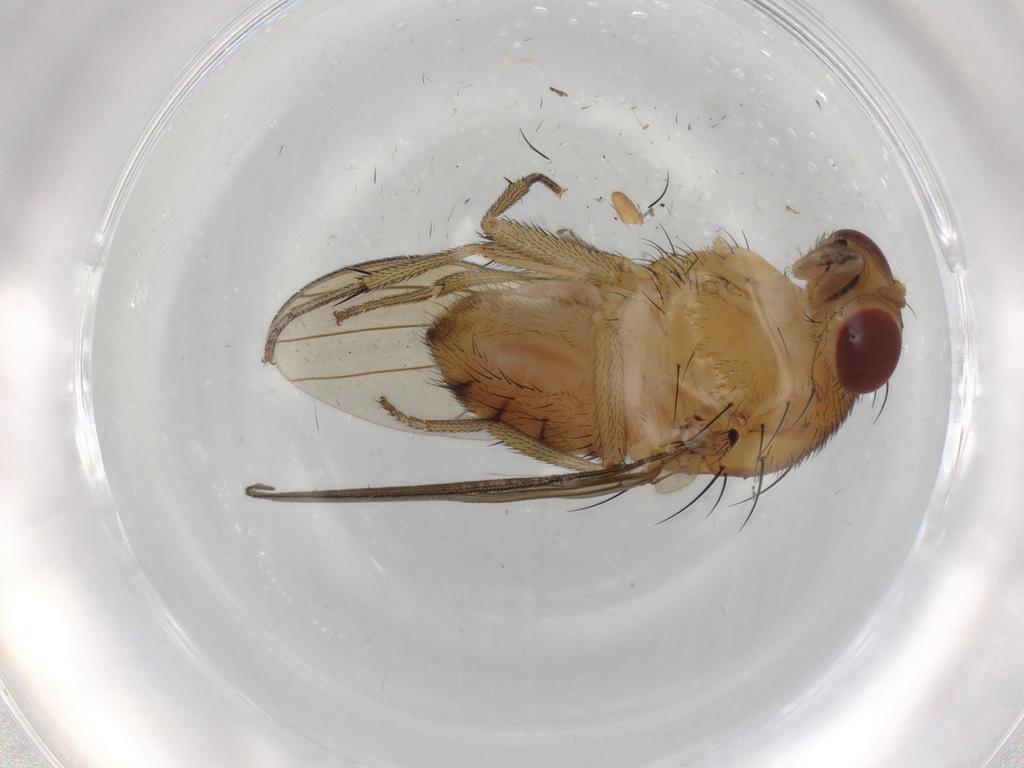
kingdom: Animalia
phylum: Arthropoda
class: Insecta
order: Diptera
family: Cecidomyiidae
